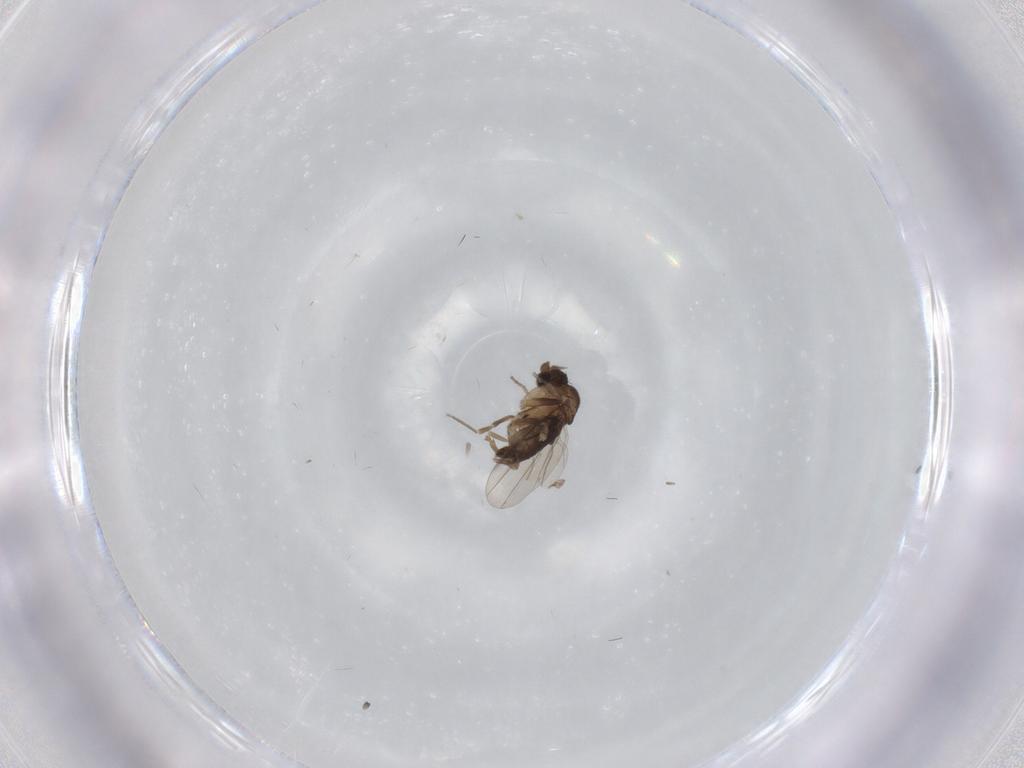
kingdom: Animalia
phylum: Arthropoda
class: Insecta
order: Diptera
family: Phoridae
